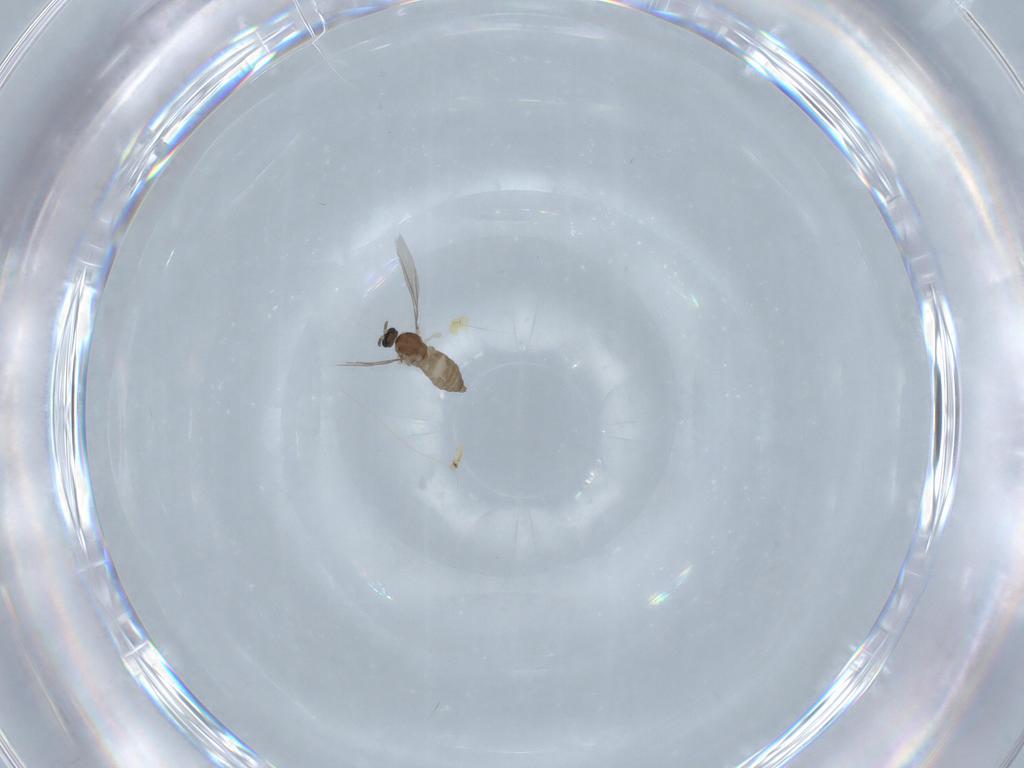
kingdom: Animalia
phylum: Arthropoda
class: Insecta
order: Diptera
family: Cecidomyiidae
